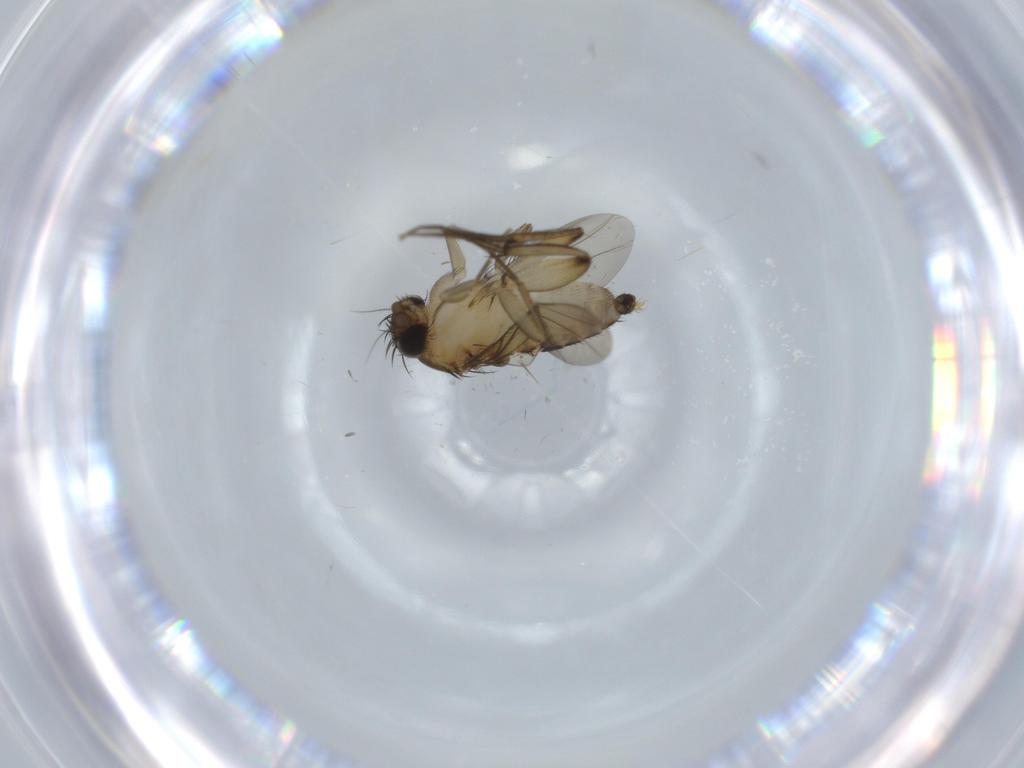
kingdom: Animalia
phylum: Arthropoda
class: Insecta
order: Diptera
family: Phoridae
